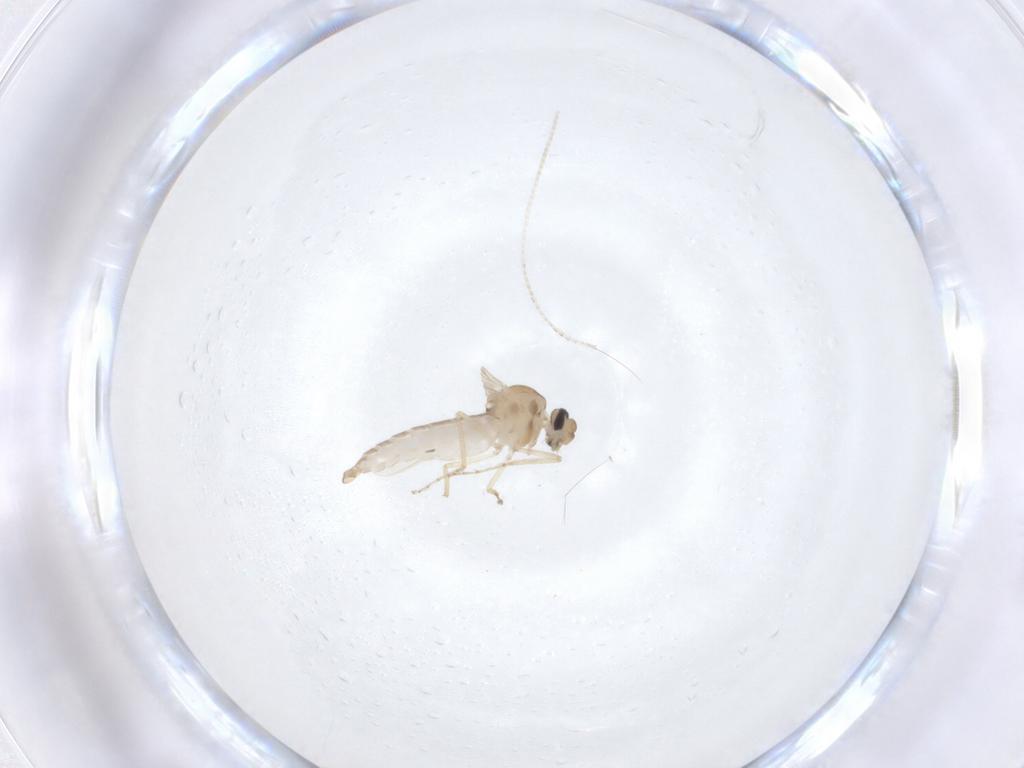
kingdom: Animalia
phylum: Arthropoda
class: Insecta
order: Diptera
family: Ceratopogonidae
